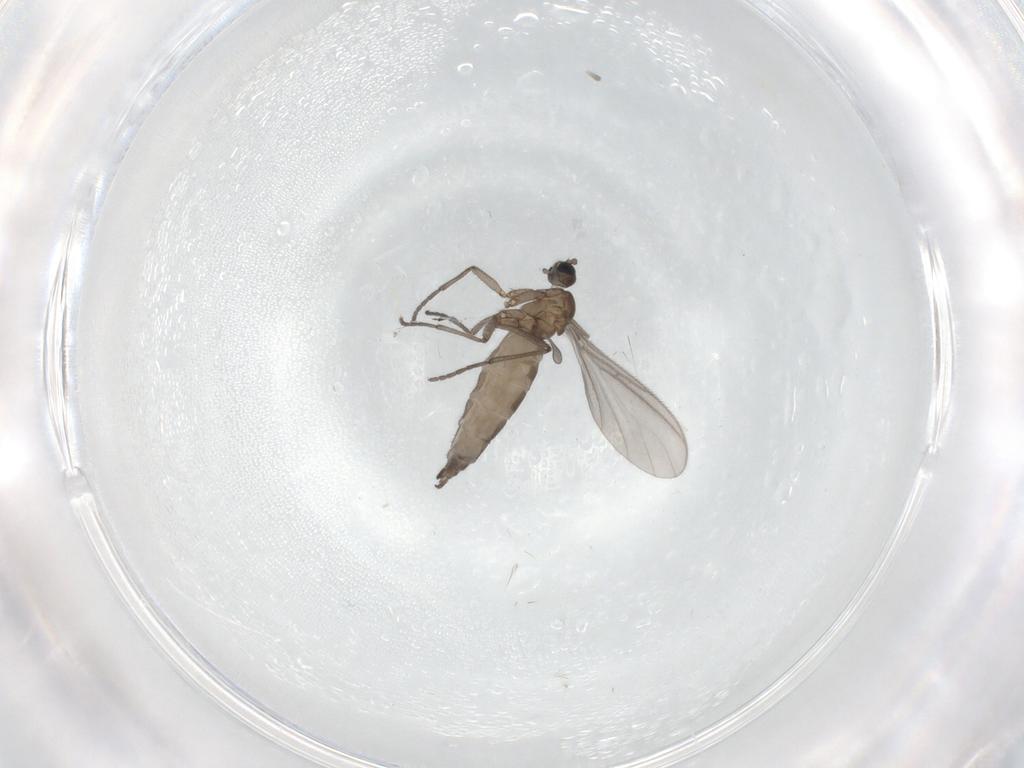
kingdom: Animalia
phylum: Arthropoda
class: Insecta
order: Diptera
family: Sciaridae
